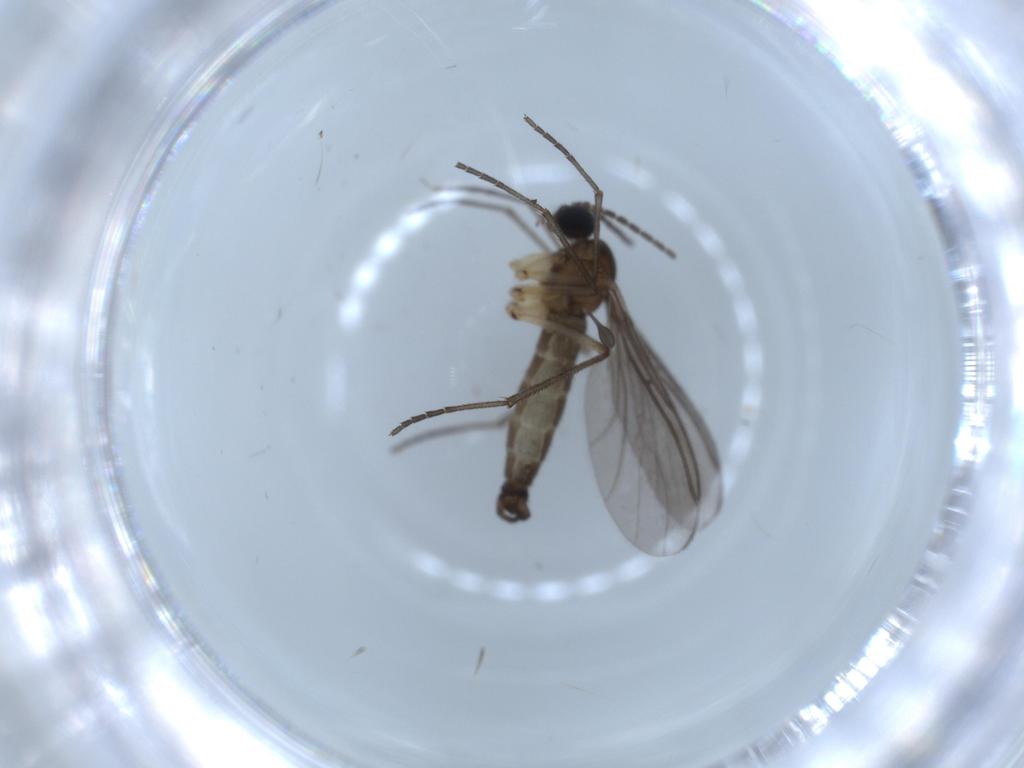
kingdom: Animalia
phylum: Arthropoda
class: Insecta
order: Diptera
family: Sciaridae
